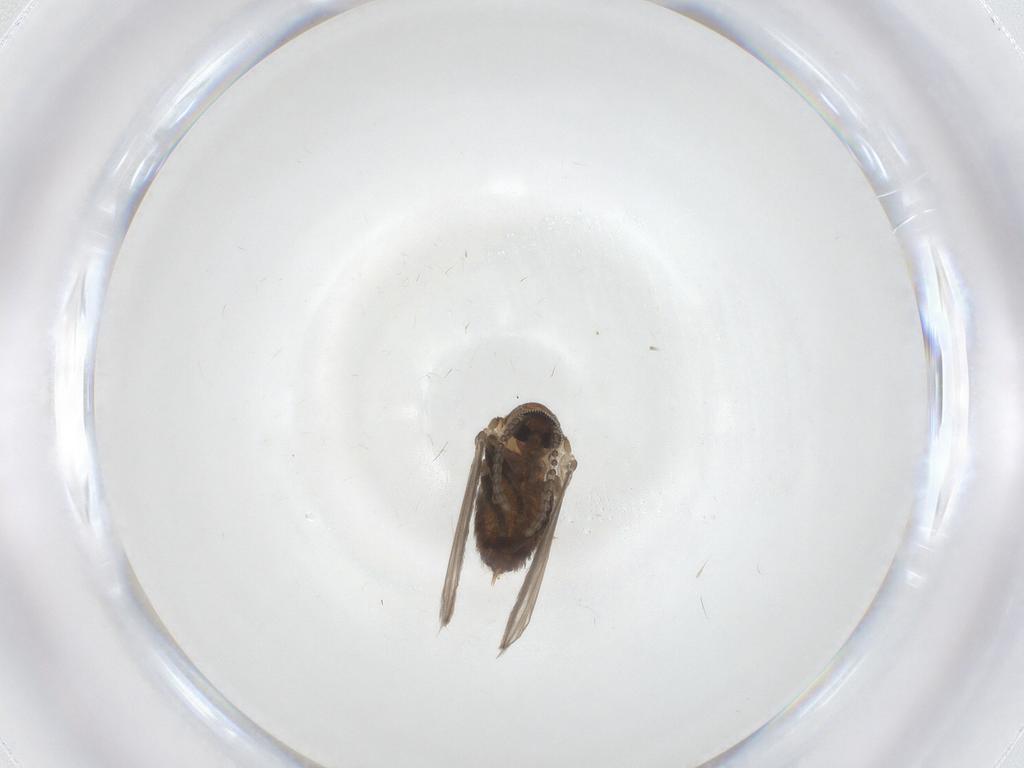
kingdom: Animalia
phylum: Arthropoda
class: Insecta
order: Diptera
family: Psychodidae
